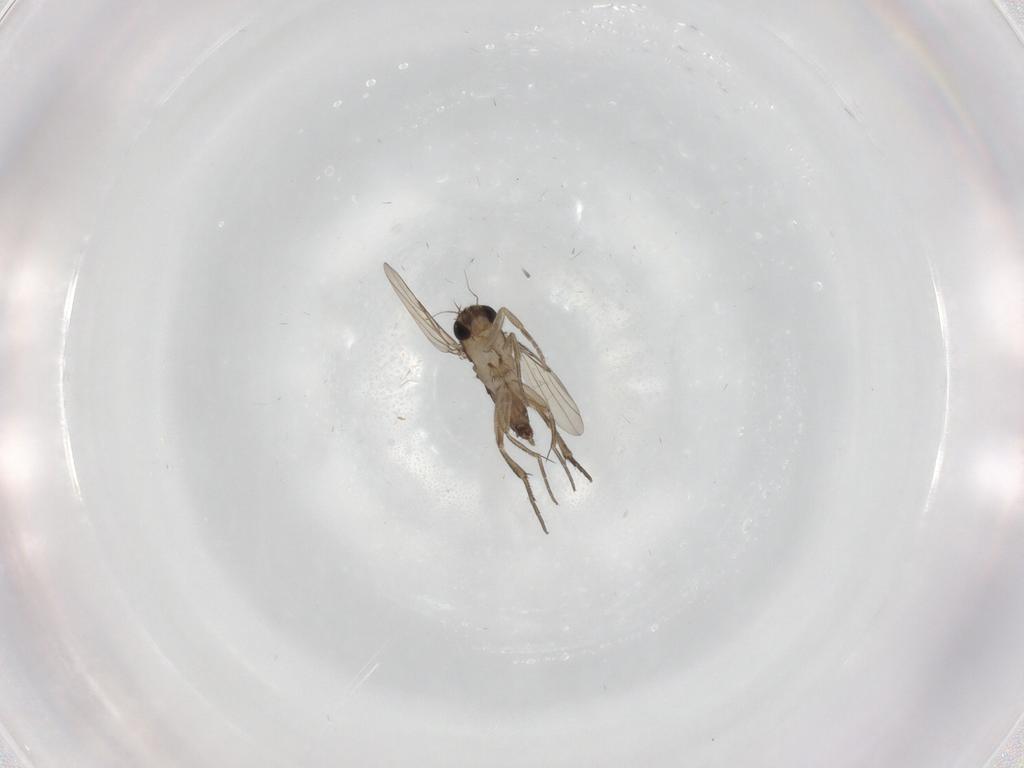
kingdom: Animalia
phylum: Arthropoda
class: Insecta
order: Diptera
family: Phoridae
